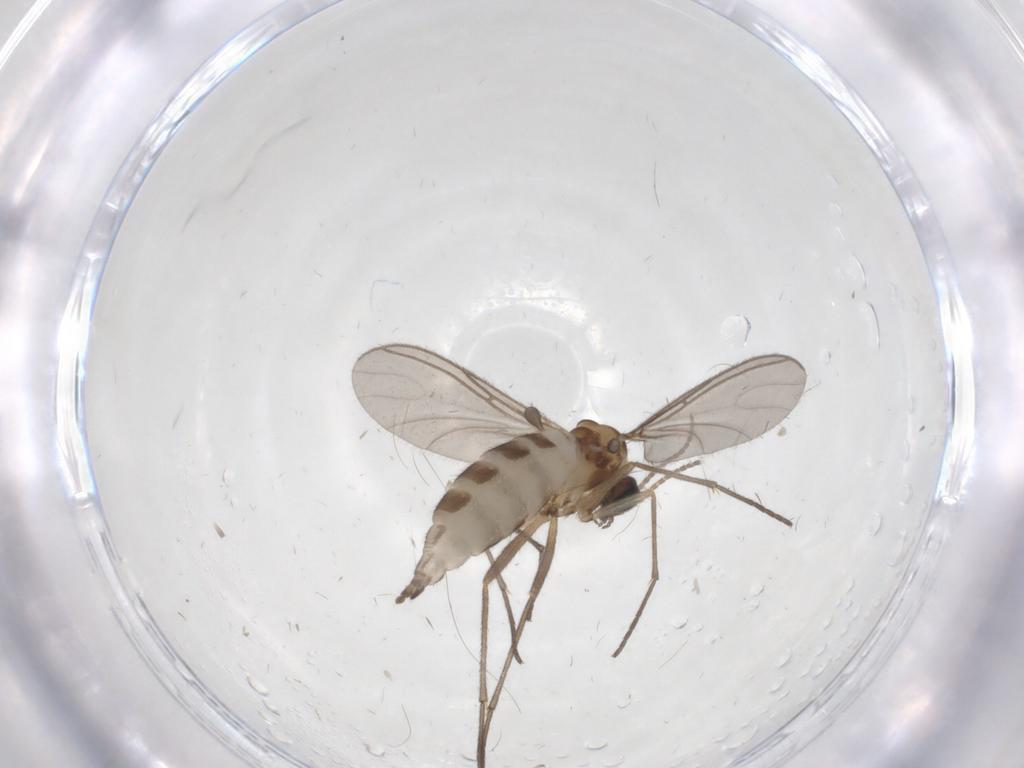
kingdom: Animalia
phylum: Arthropoda
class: Insecta
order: Diptera
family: Sciaridae
